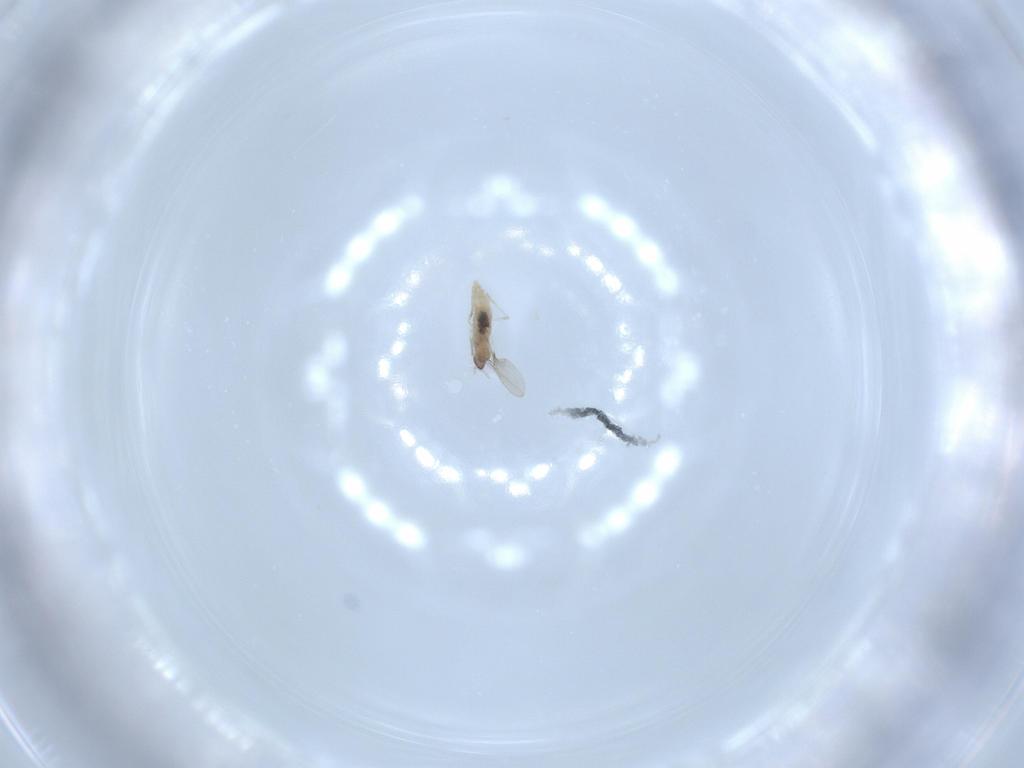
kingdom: Animalia
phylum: Arthropoda
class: Insecta
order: Diptera
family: Cecidomyiidae
